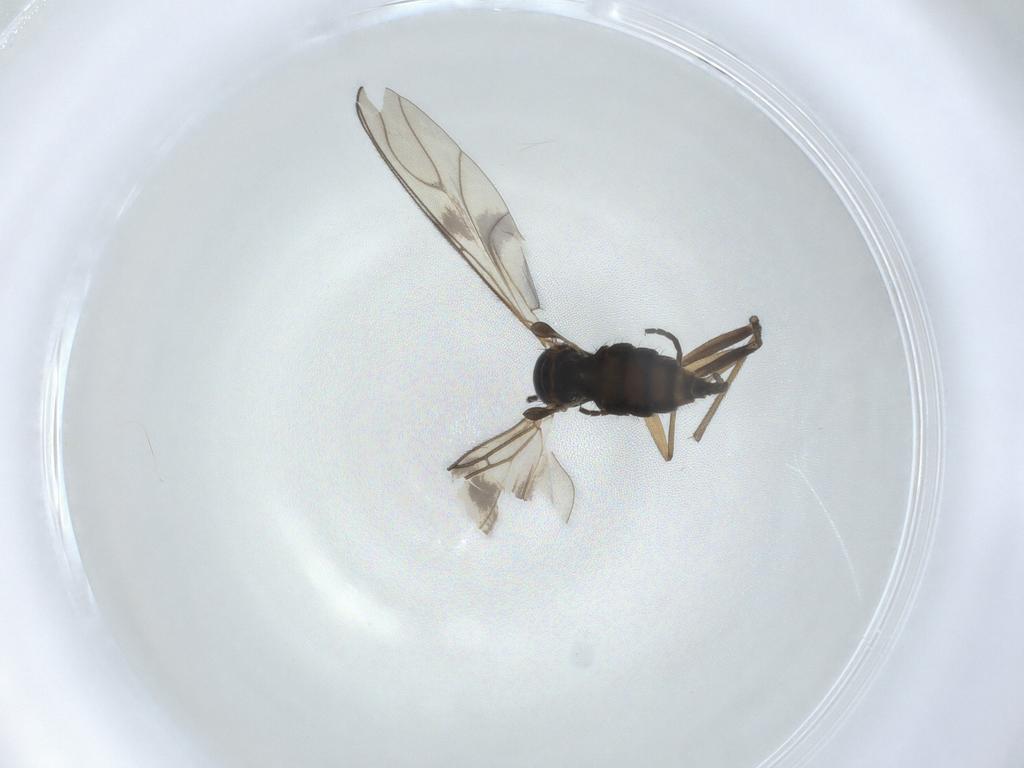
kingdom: Animalia
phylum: Arthropoda
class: Insecta
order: Diptera
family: Sciaridae
